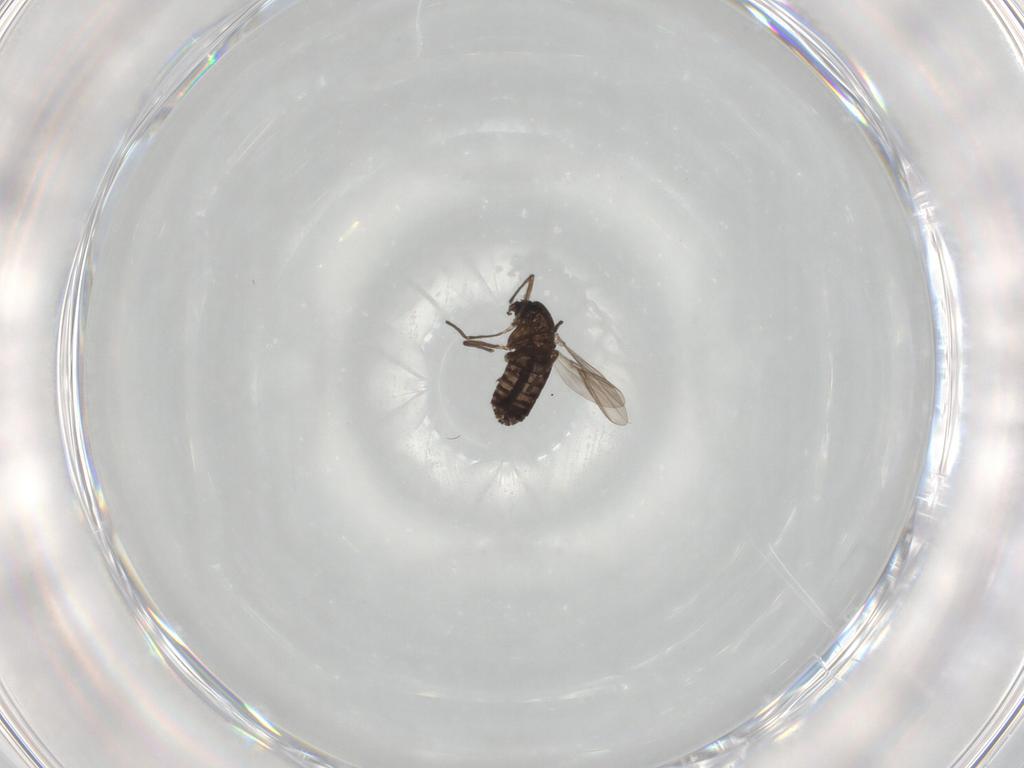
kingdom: Animalia
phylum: Arthropoda
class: Insecta
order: Diptera
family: Chironomidae
